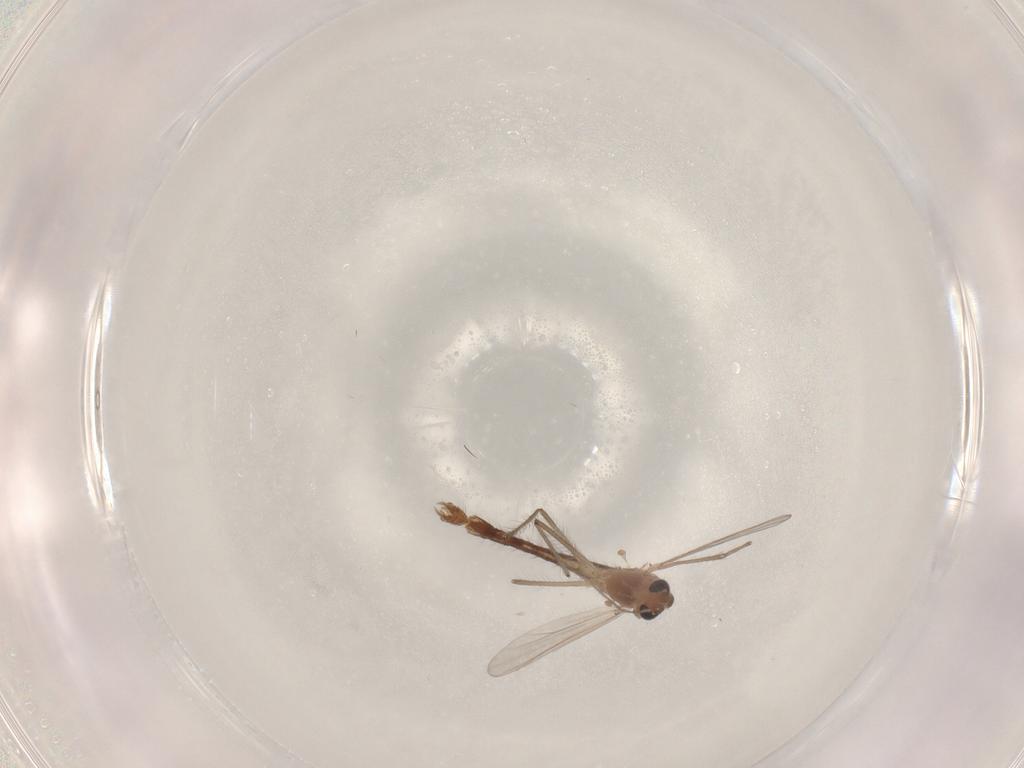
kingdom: Animalia
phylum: Arthropoda
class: Insecta
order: Diptera
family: Chironomidae
